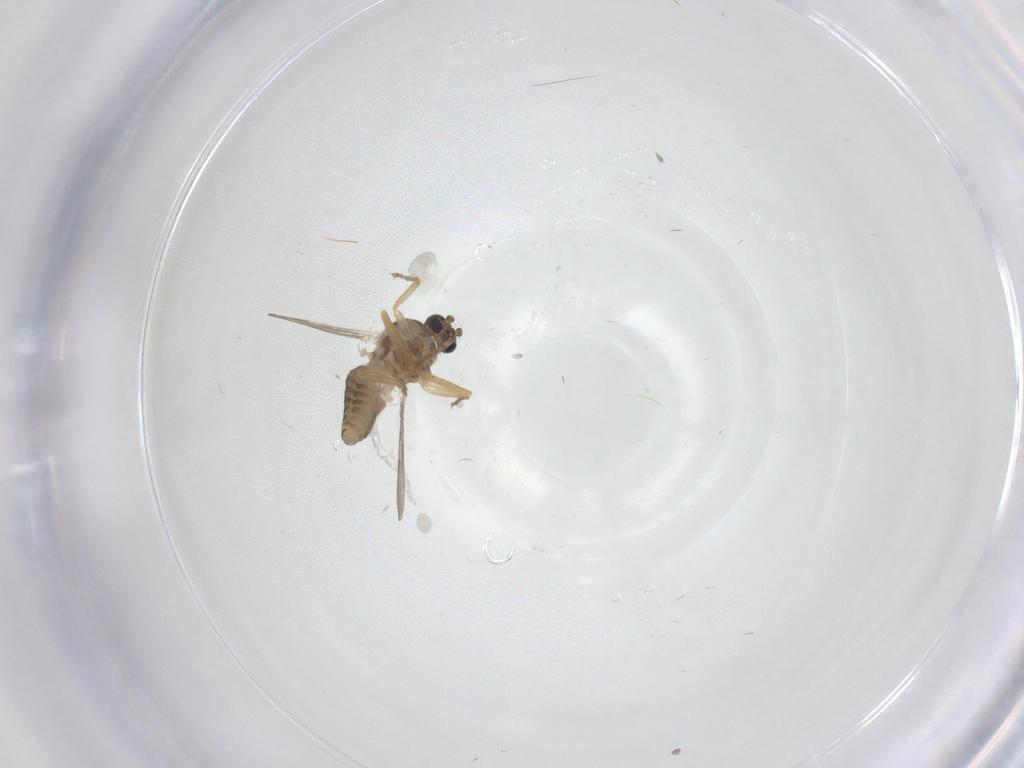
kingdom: Animalia
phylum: Arthropoda
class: Insecta
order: Diptera
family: Ceratopogonidae
